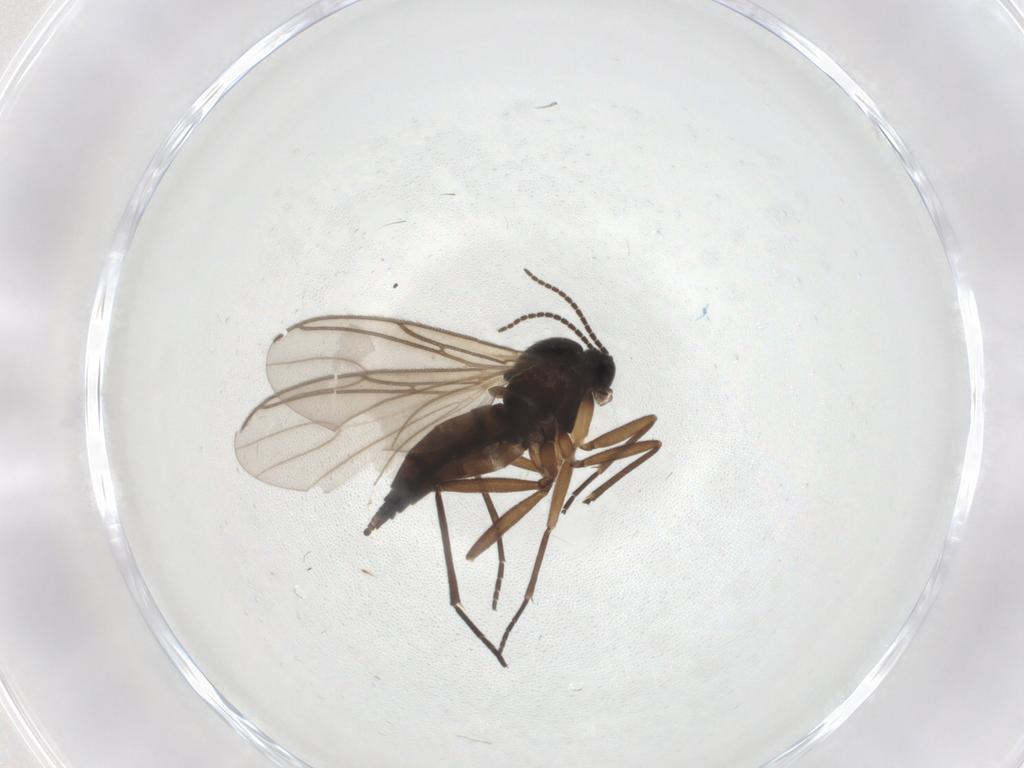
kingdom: Animalia
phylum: Arthropoda
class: Insecta
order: Diptera
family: Sciaridae
